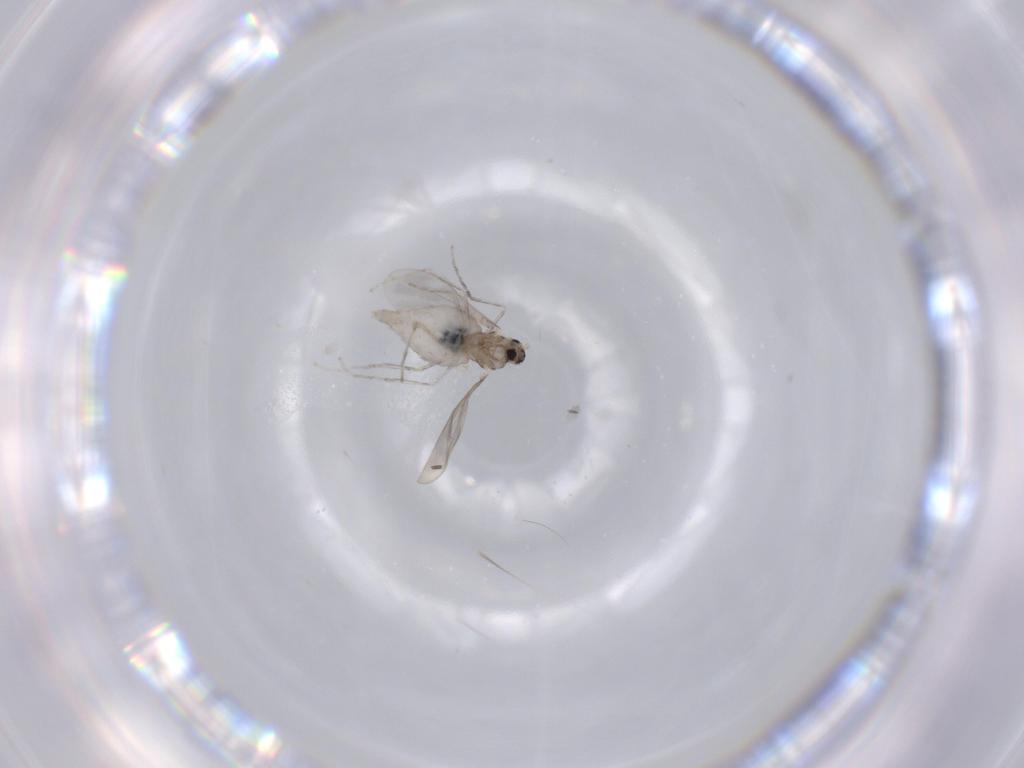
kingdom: Animalia
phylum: Arthropoda
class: Insecta
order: Diptera
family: Cecidomyiidae
